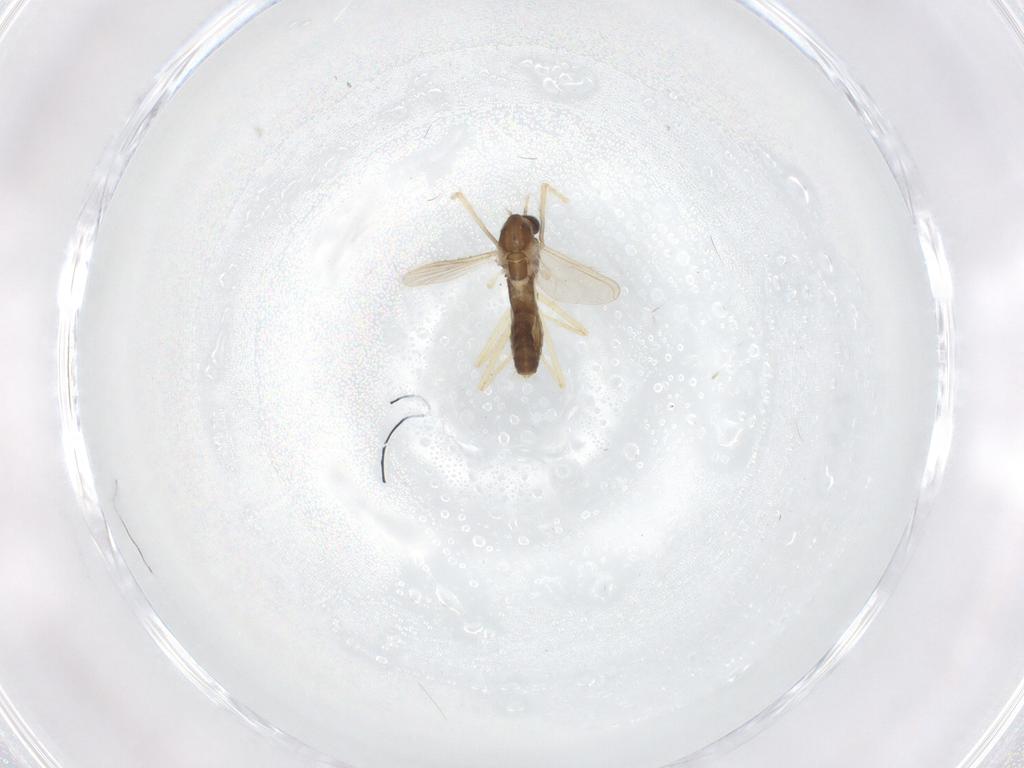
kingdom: Animalia
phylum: Arthropoda
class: Insecta
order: Diptera
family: Chironomidae
